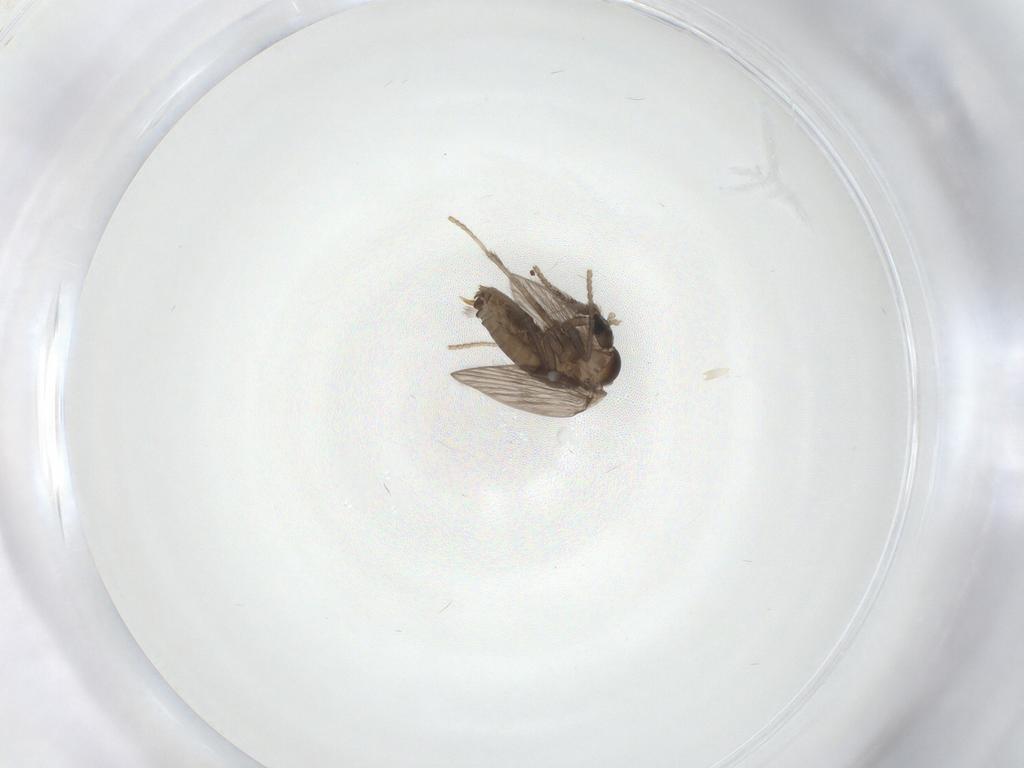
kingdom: Animalia
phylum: Arthropoda
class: Insecta
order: Diptera
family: Psychodidae
